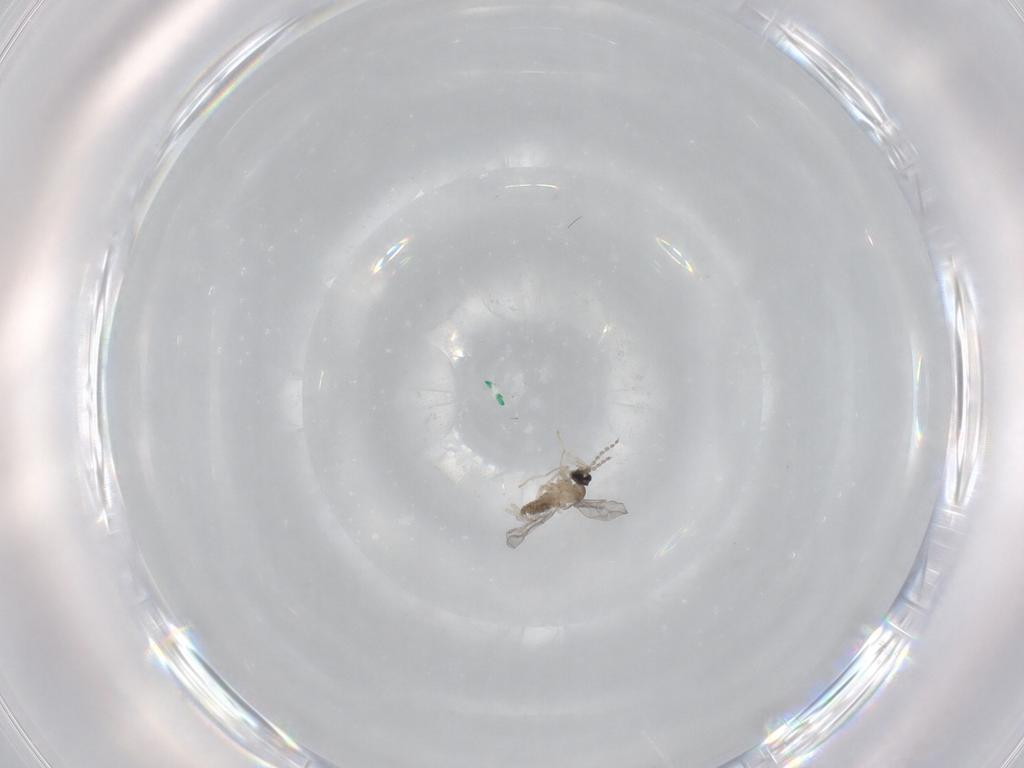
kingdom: Animalia
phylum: Arthropoda
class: Insecta
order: Diptera
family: Cecidomyiidae
